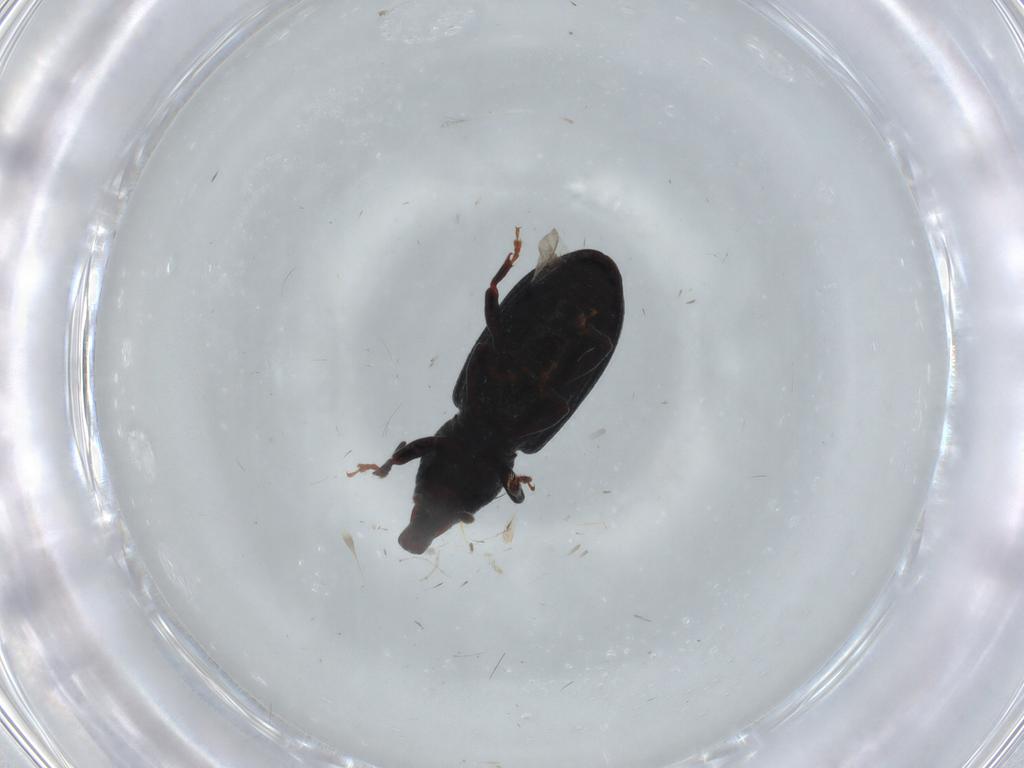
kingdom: Animalia
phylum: Arthropoda
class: Insecta
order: Coleoptera
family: Curculionidae
